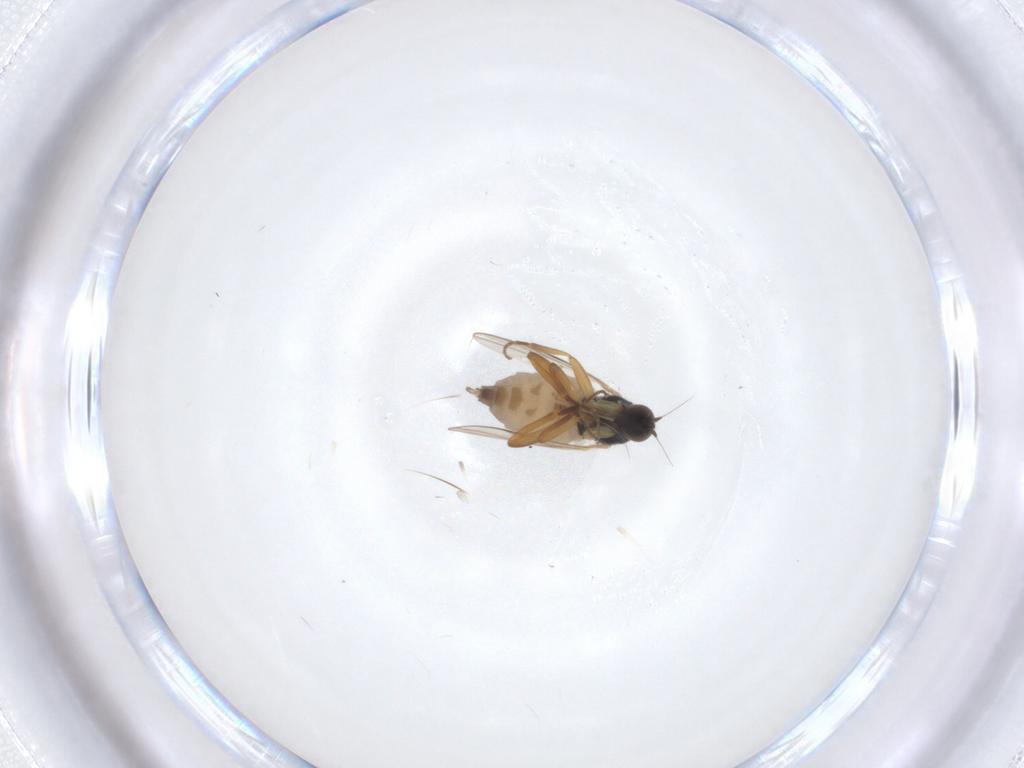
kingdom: Animalia
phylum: Arthropoda
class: Insecta
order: Diptera
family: Hybotidae
